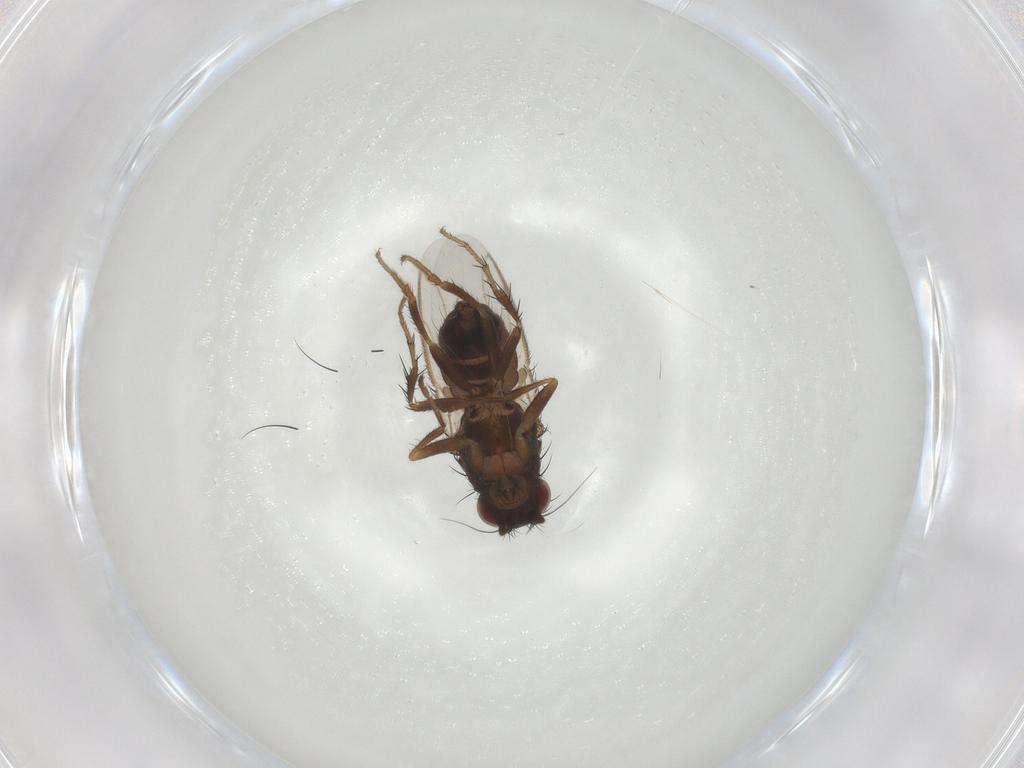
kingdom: Animalia
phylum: Arthropoda
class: Insecta
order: Diptera
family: Sphaeroceridae
